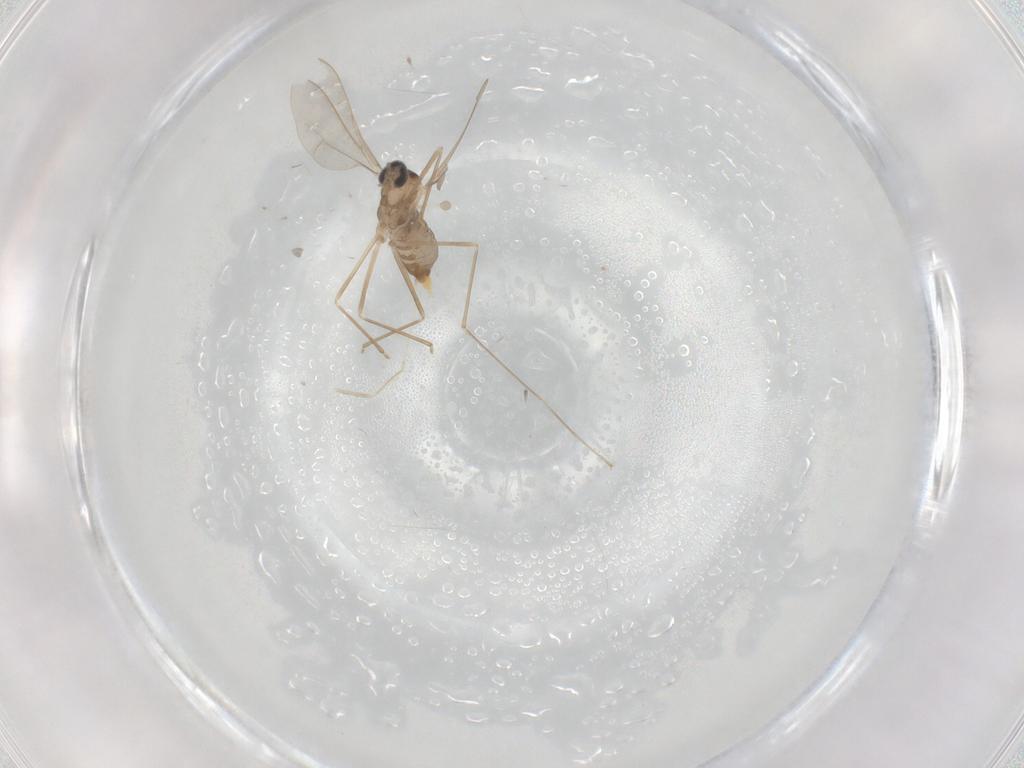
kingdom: Animalia
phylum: Arthropoda
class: Insecta
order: Diptera
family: Cecidomyiidae
